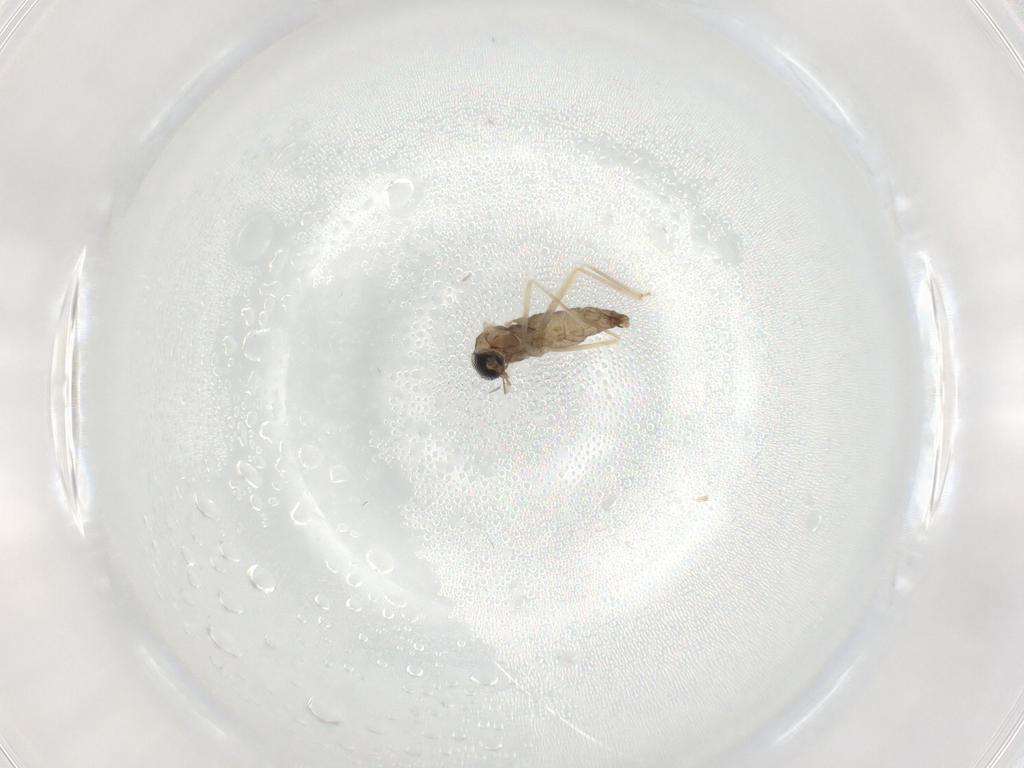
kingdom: Animalia
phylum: Arthropoda
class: Insecta
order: Diptera
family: Cecidomyiidae
